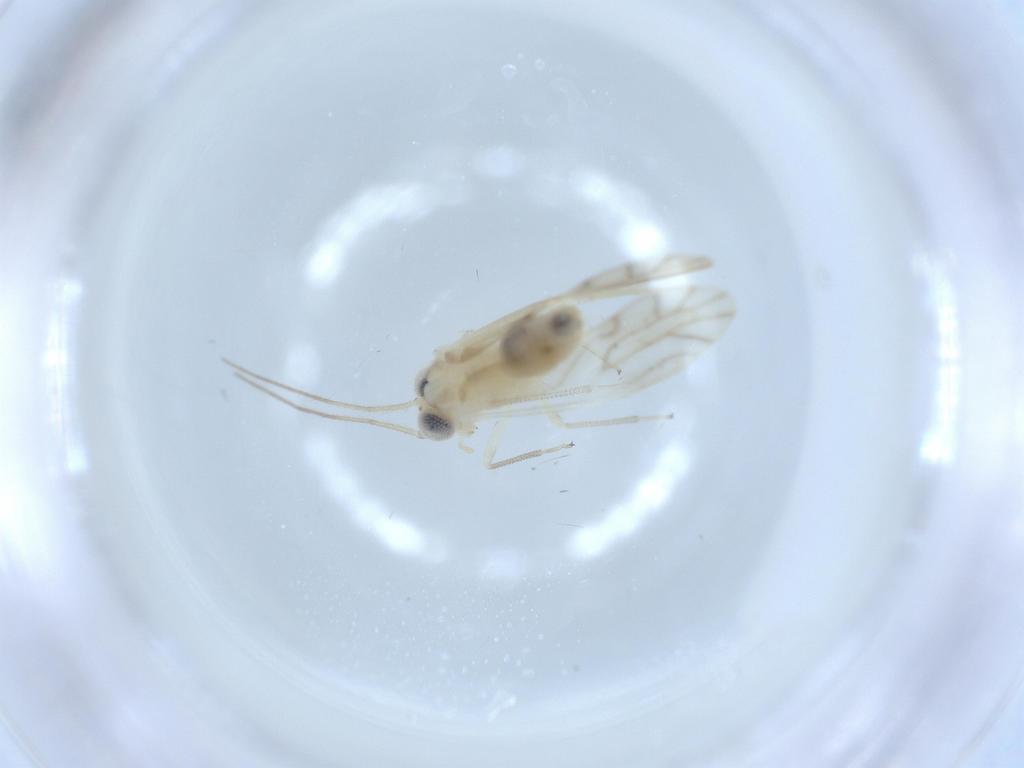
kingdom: Animalia
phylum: Arthropoda
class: Insecta
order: Psocodea
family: Caeciliusidae
